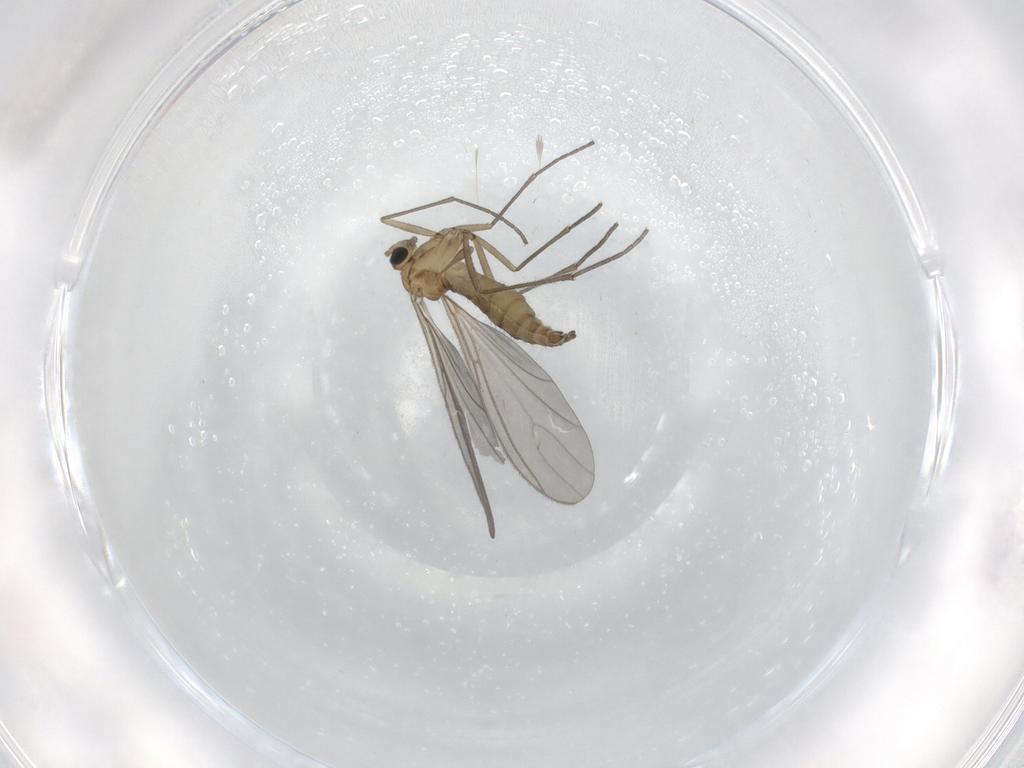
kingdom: Animalia
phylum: Arthropoda
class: Insecta
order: Diptera
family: Sciaridae
